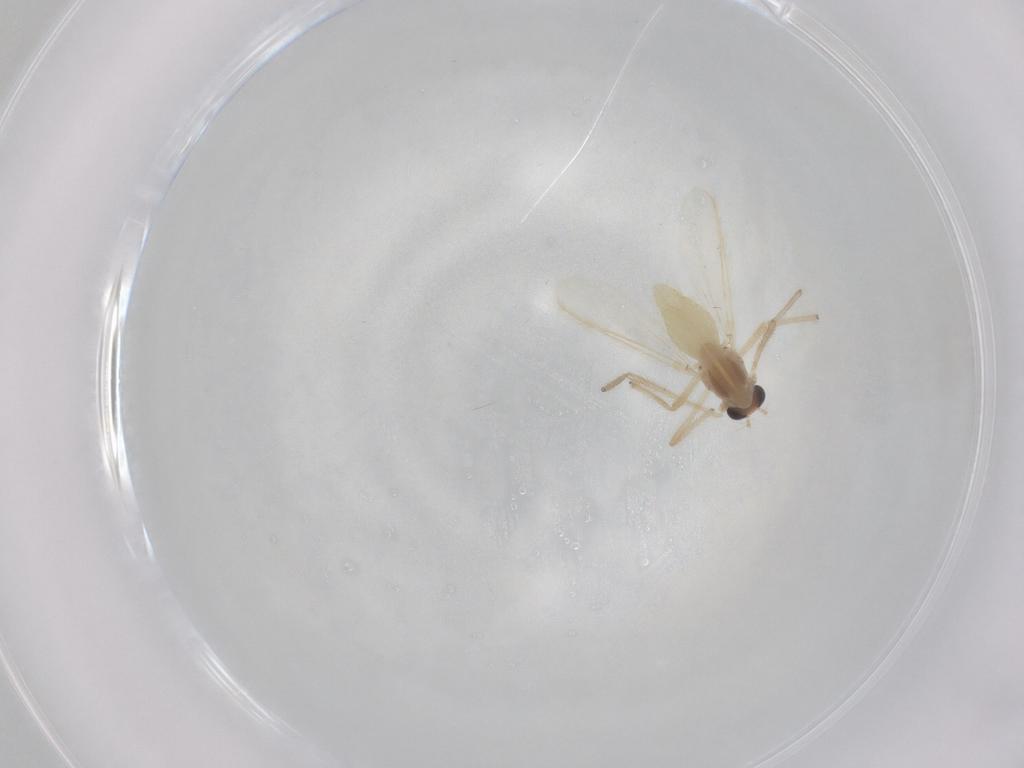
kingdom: Animalia
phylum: Arthropoda
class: Insecta
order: Diptera
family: Chironomidae
